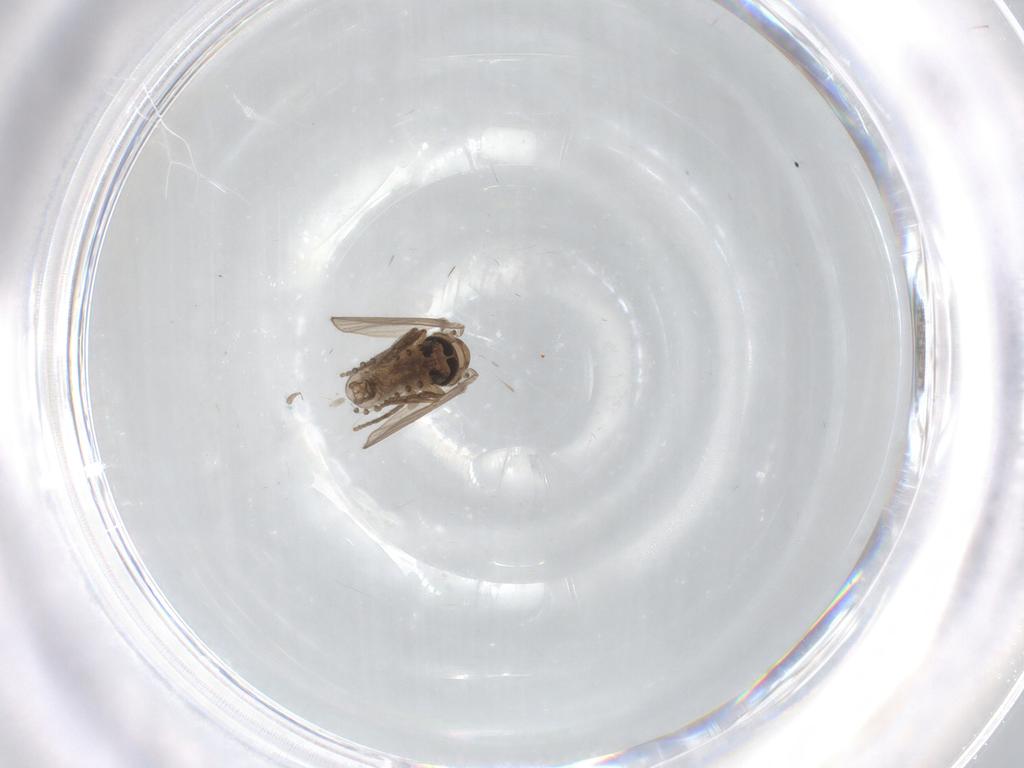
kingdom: Animalia
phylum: Arthropoda
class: Insecta
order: Diptera
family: Psychodidae
